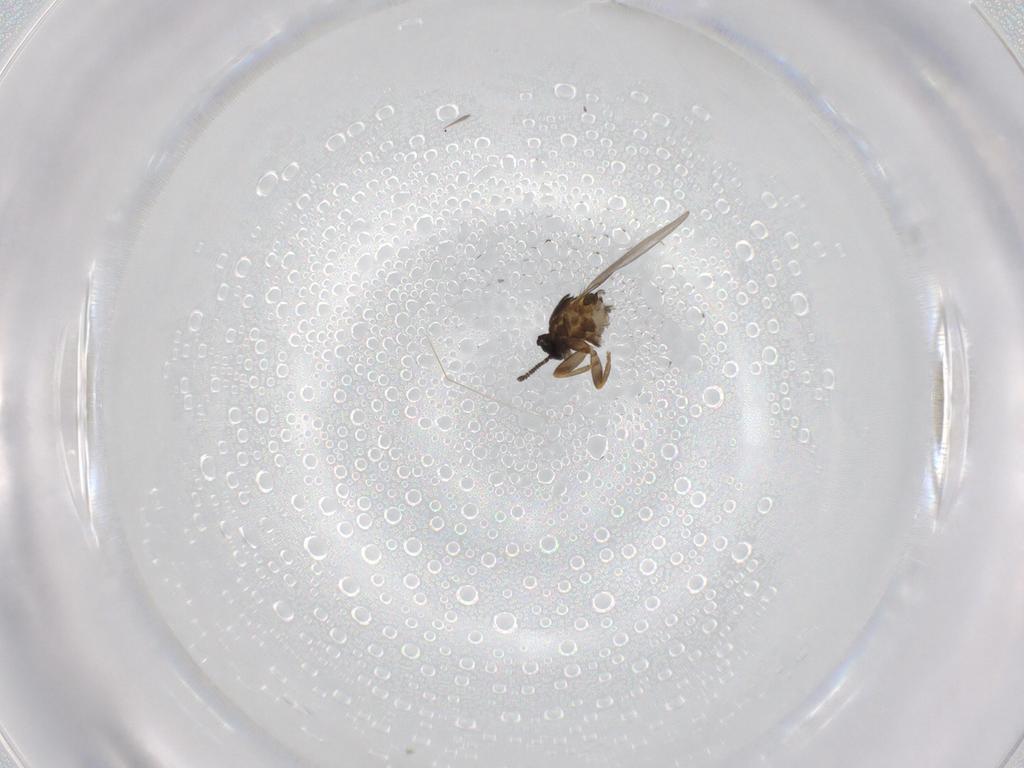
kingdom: Animalia
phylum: Arthropoda
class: Insecta
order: Diptera
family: Scatopsidae
